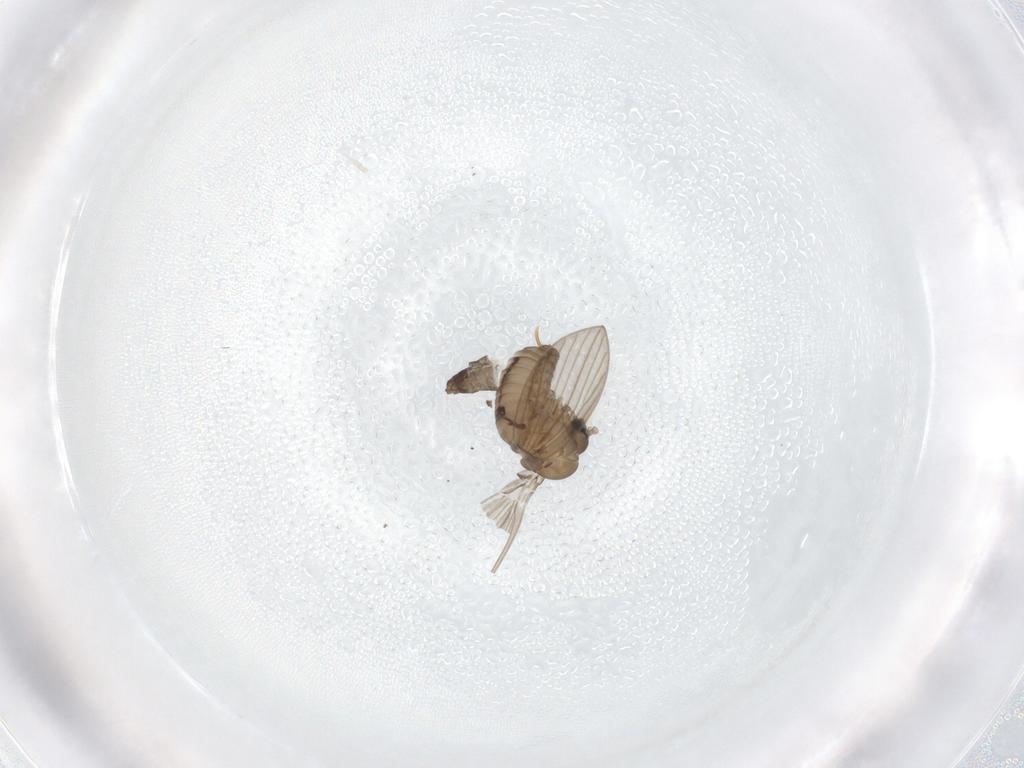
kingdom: Animalia
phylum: Arthropoda
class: Insecta
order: Diptera
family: Psychodidae
